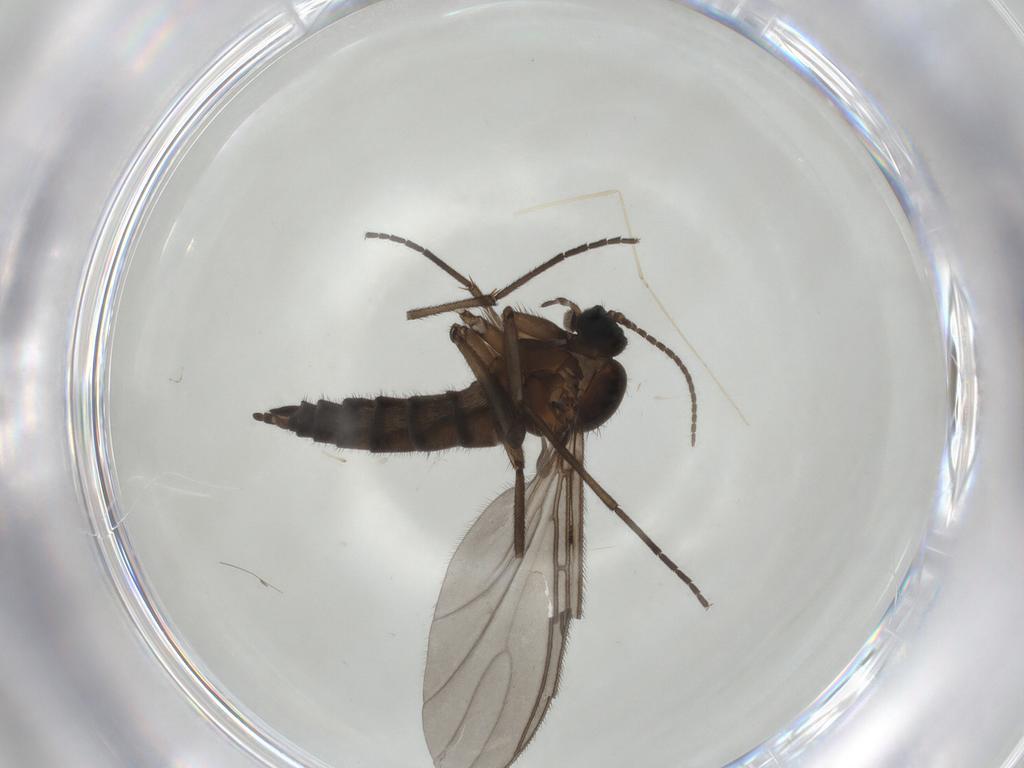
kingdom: Animalia
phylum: Arthropoda
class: Insecta
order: Diptera
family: Sciaridae
